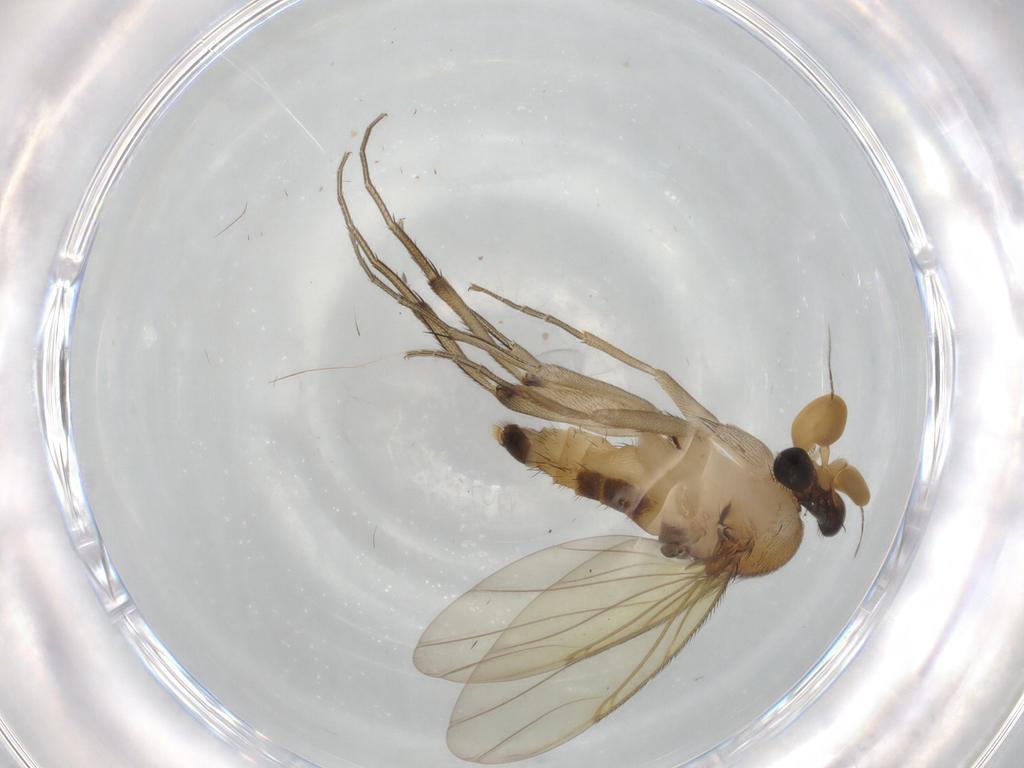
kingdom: Animalia
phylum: Arthropoda
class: Insecta
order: Diptera
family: Phoridae
